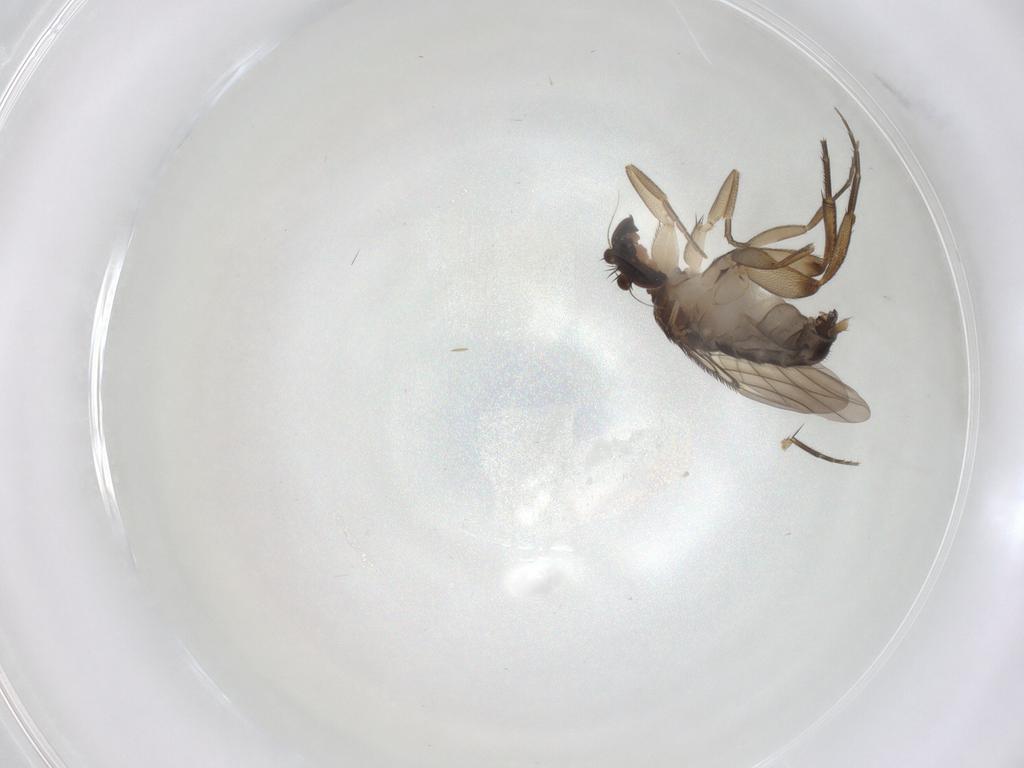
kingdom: Animalia
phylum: Arthropoda
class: Insecta
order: Diptera
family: Phoridae
